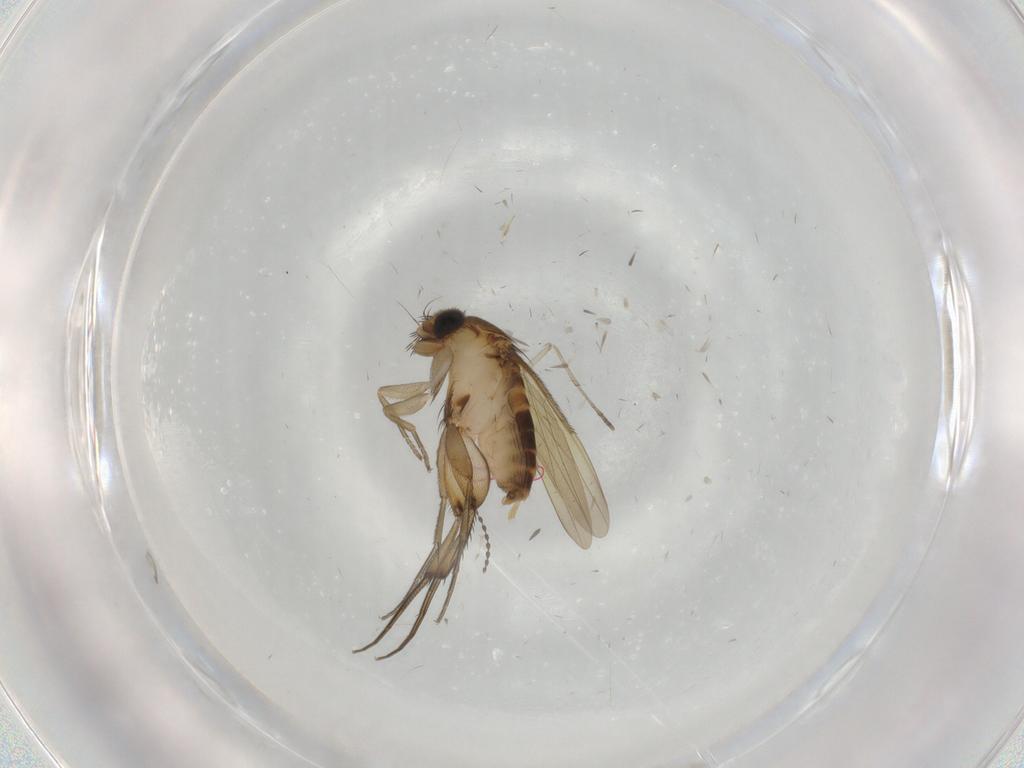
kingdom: Animalia
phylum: Arthropoda
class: Insecta
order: Diptera
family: Phoridae
